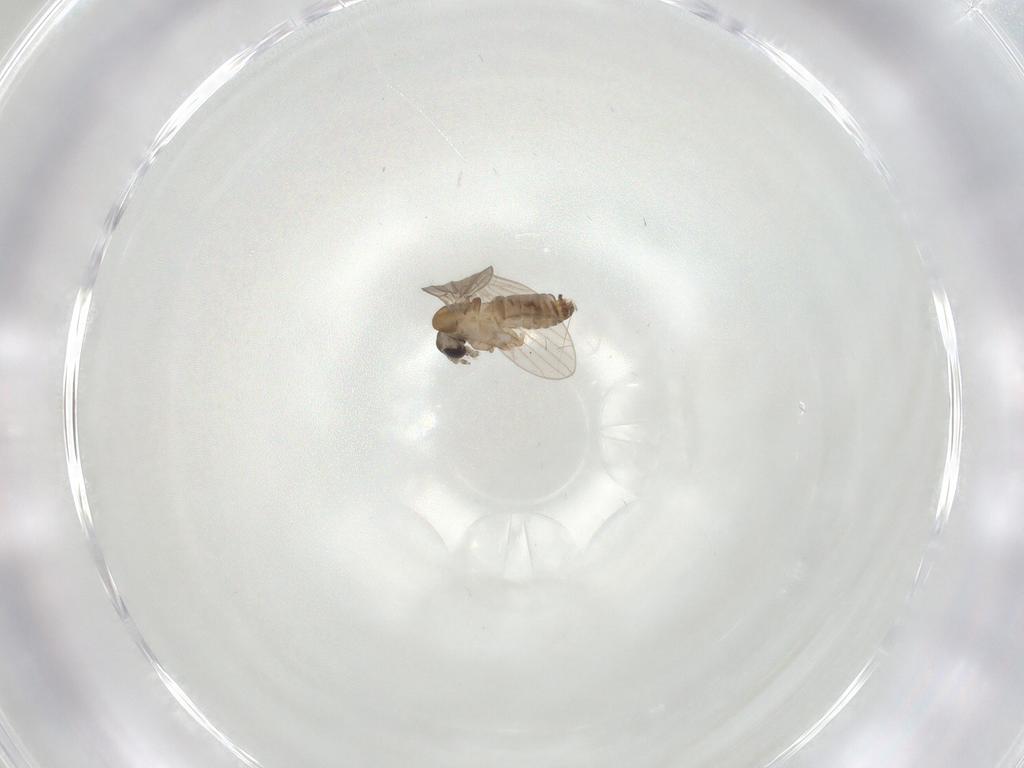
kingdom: Animalia
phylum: Arthropoda
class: Insecta
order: Diptera
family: Cecidomyiidae
